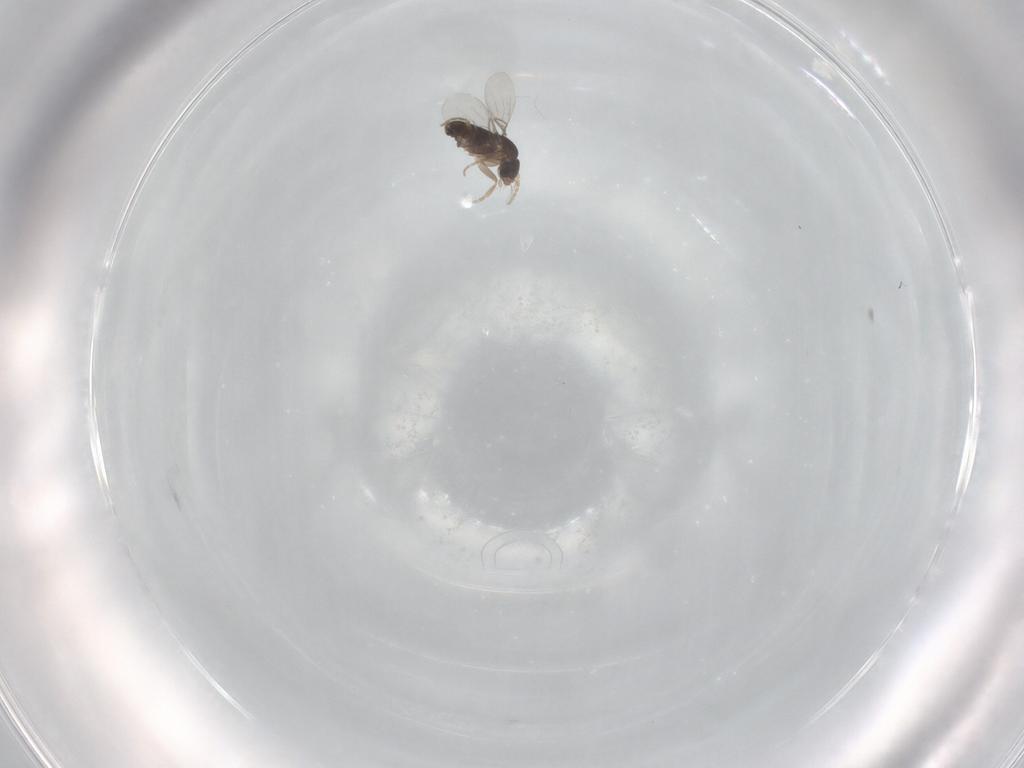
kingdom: Animalia
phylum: Arthropoda
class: Insecta
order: Diptera
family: Phoridae
